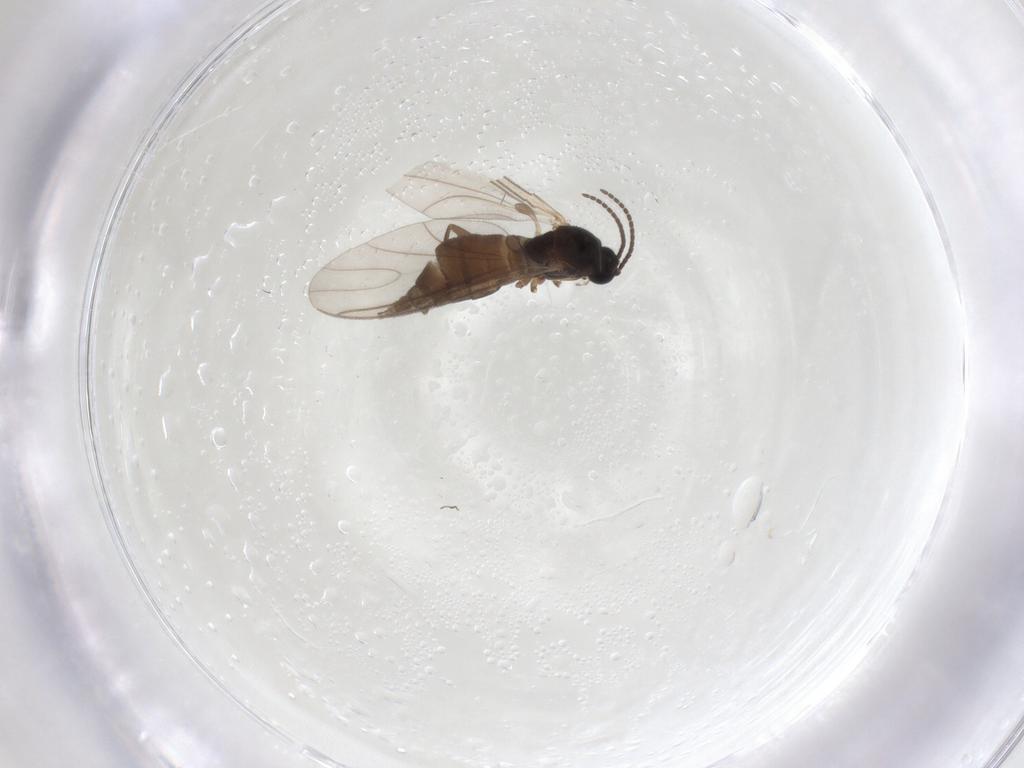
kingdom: Animalia
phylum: Arthropoda
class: Insecta
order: Diptera
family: Sciaridae
